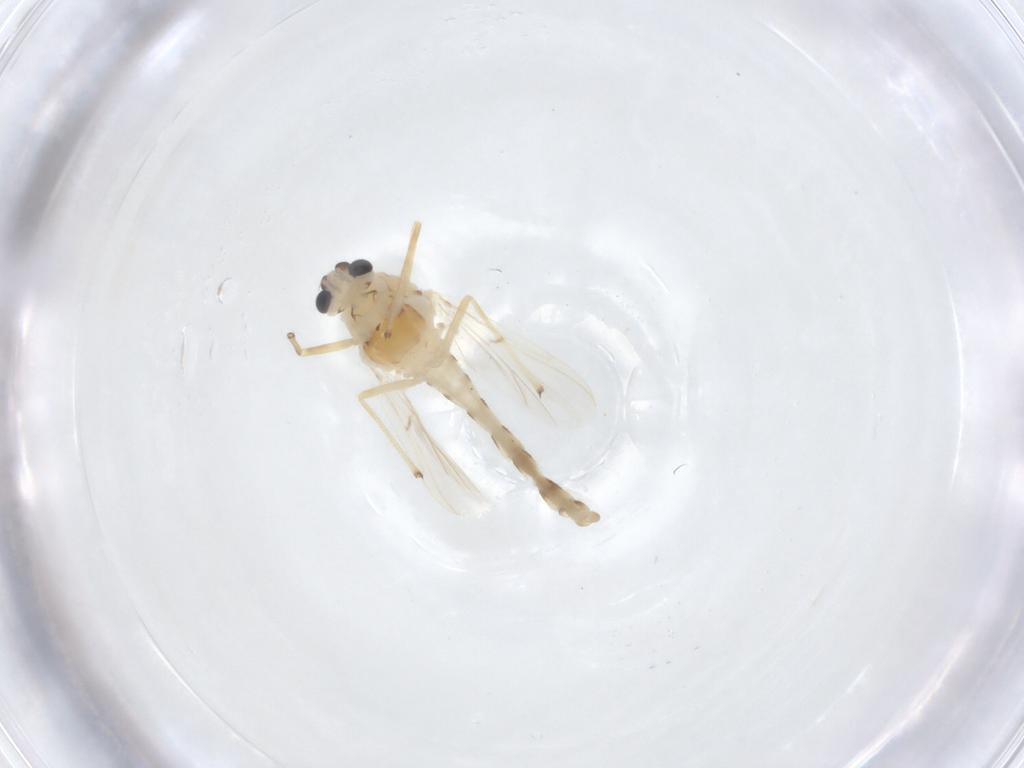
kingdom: Animalia
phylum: Arthropoda
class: Insecta
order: Diptera
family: Chironomidae
